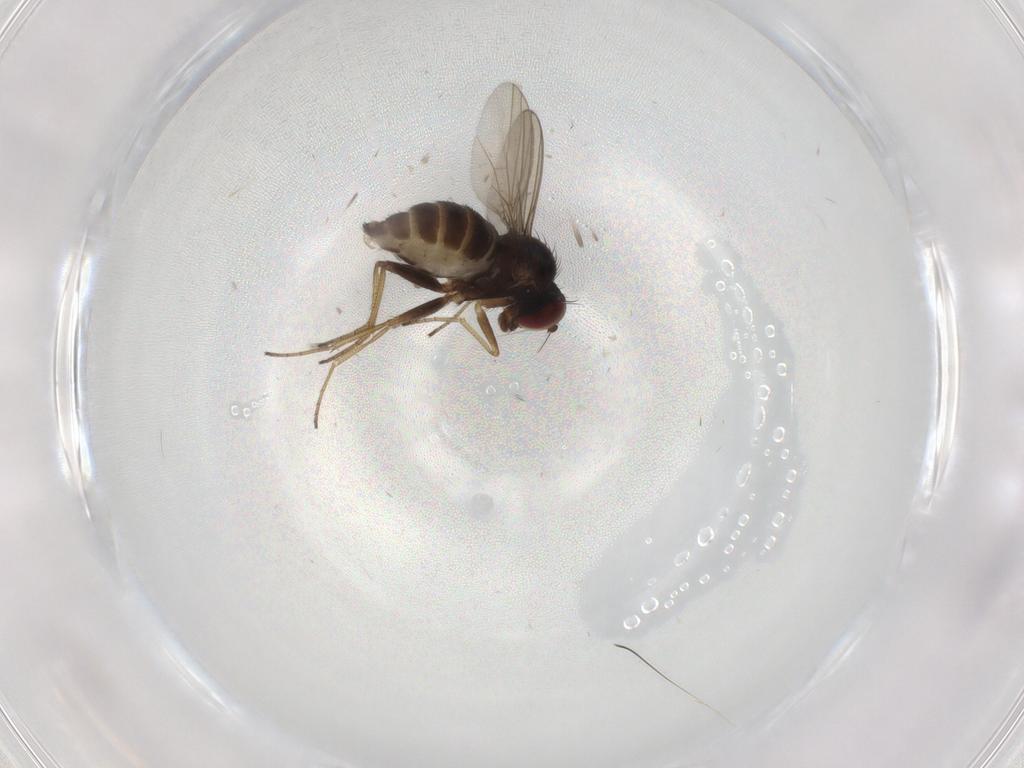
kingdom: Animalia
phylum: Arthropoda
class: Insecta
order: Diptera
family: Dolichopodidae
